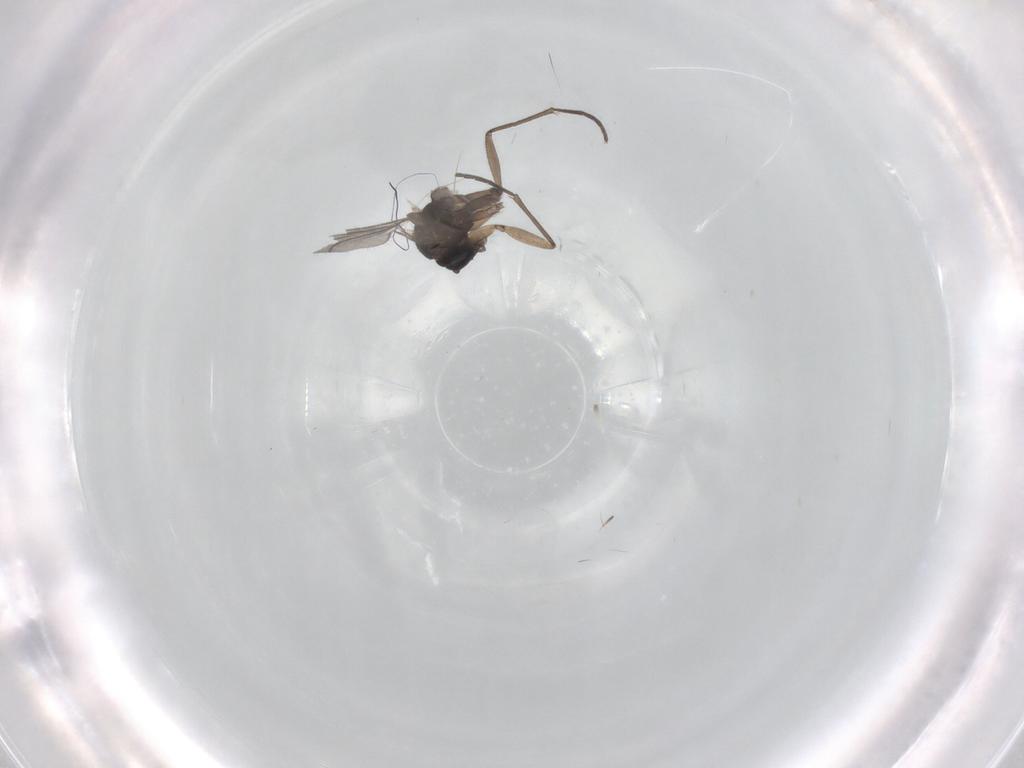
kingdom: Animalia
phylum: Arthropoda
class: Insecta
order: Diptera
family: Sciaridae
